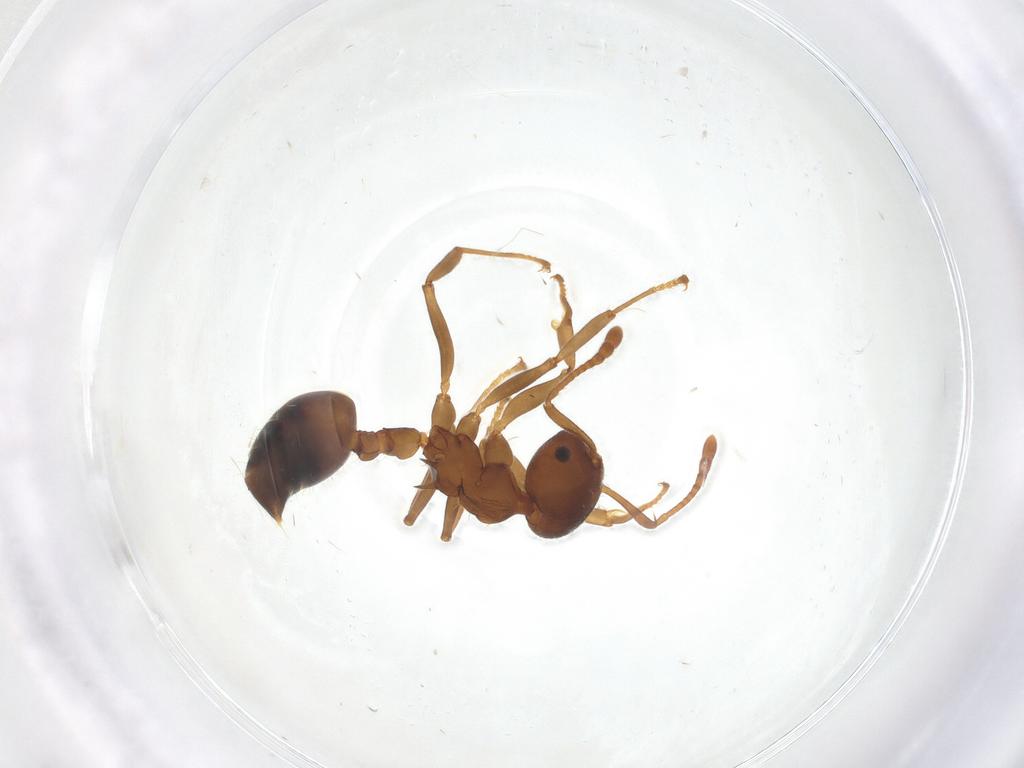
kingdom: Animalia
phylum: Arthropoda
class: Insecta
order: Hymenoptera
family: Formicidae
